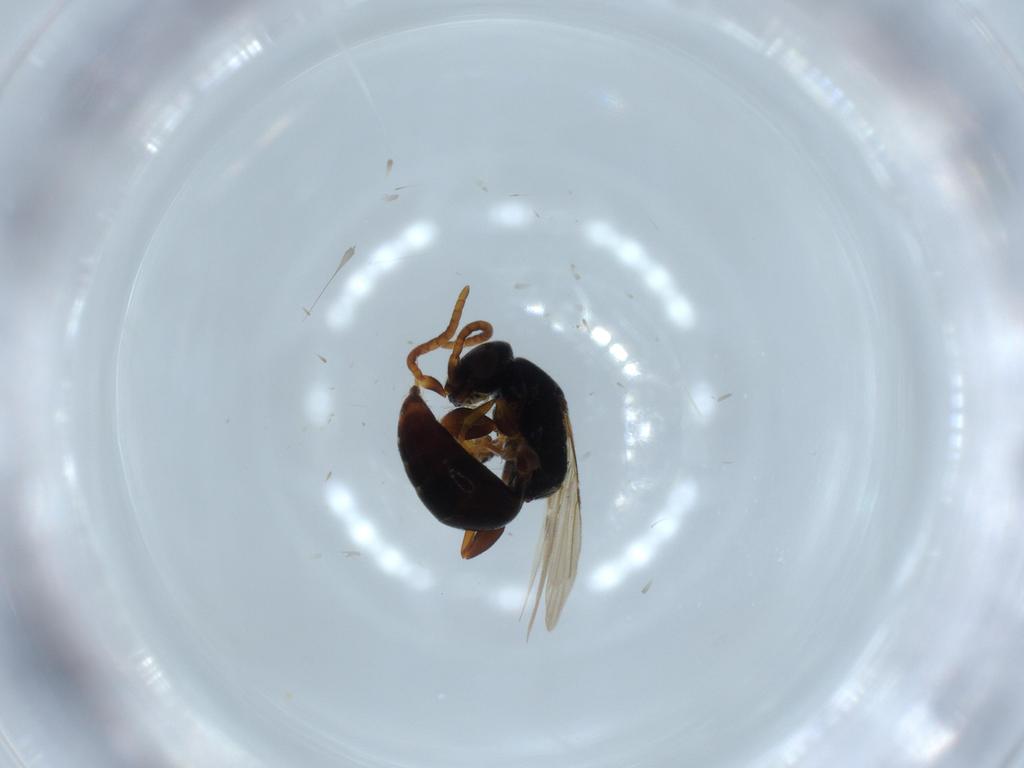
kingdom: Animalia
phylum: Arthropoda
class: Insecta
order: Hymenoptera
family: Bethylidae
